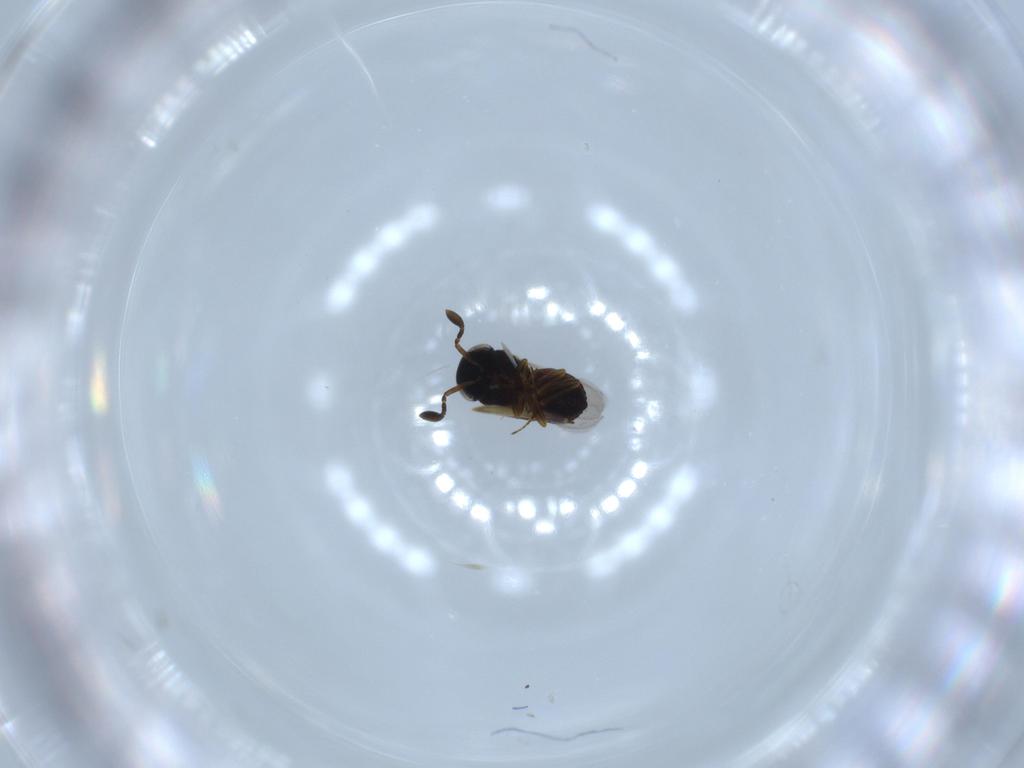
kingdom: Animalia
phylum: Arthropoda
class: Insecta
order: Hymenoptera
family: Scelionidae
